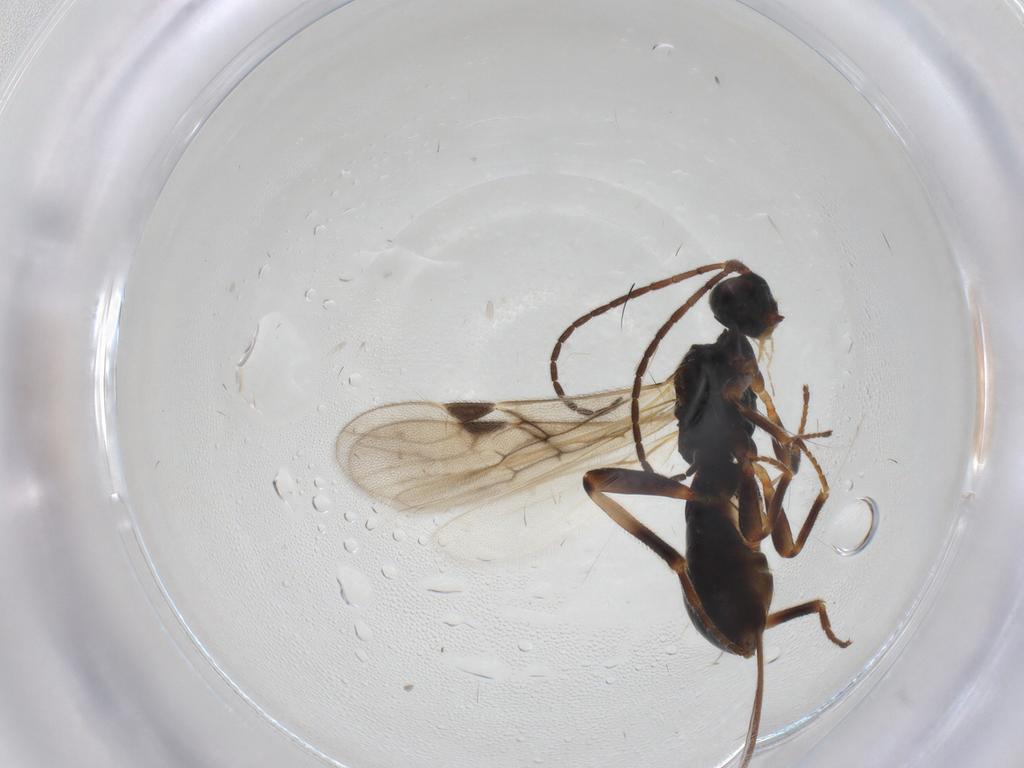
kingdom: Animalia
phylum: Arthropoda
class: Insecta
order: Hymenoptera
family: Braconidae
